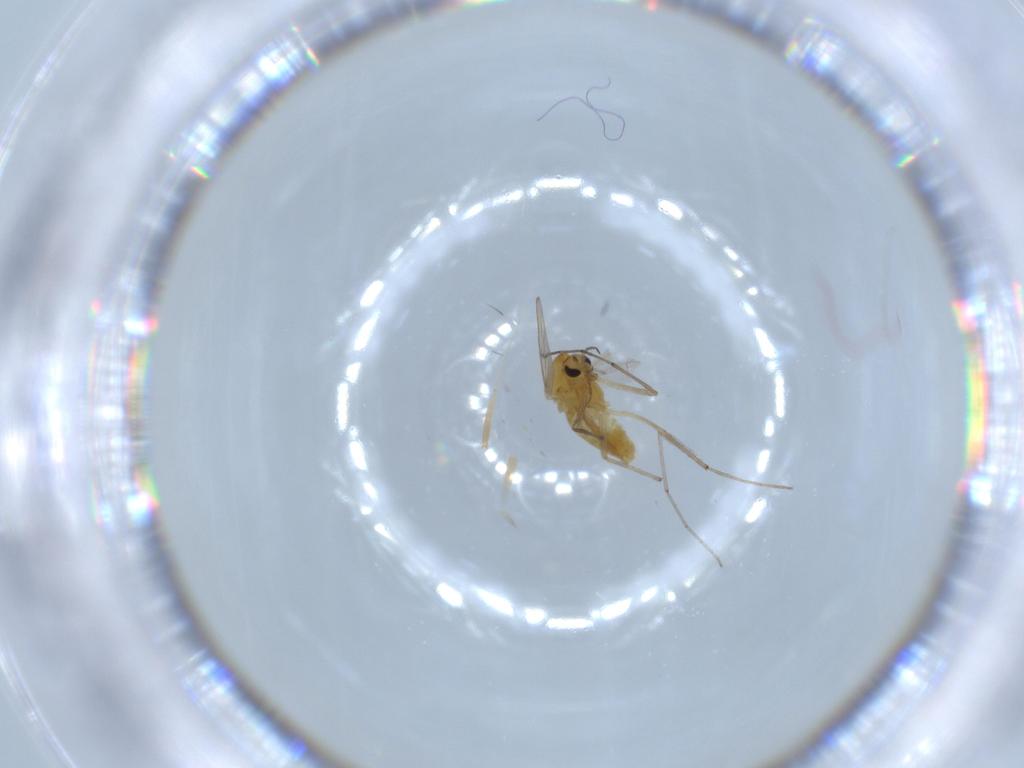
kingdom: Animalia
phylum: Arthropoda
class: Insecta
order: Diptera
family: Chironomidae
